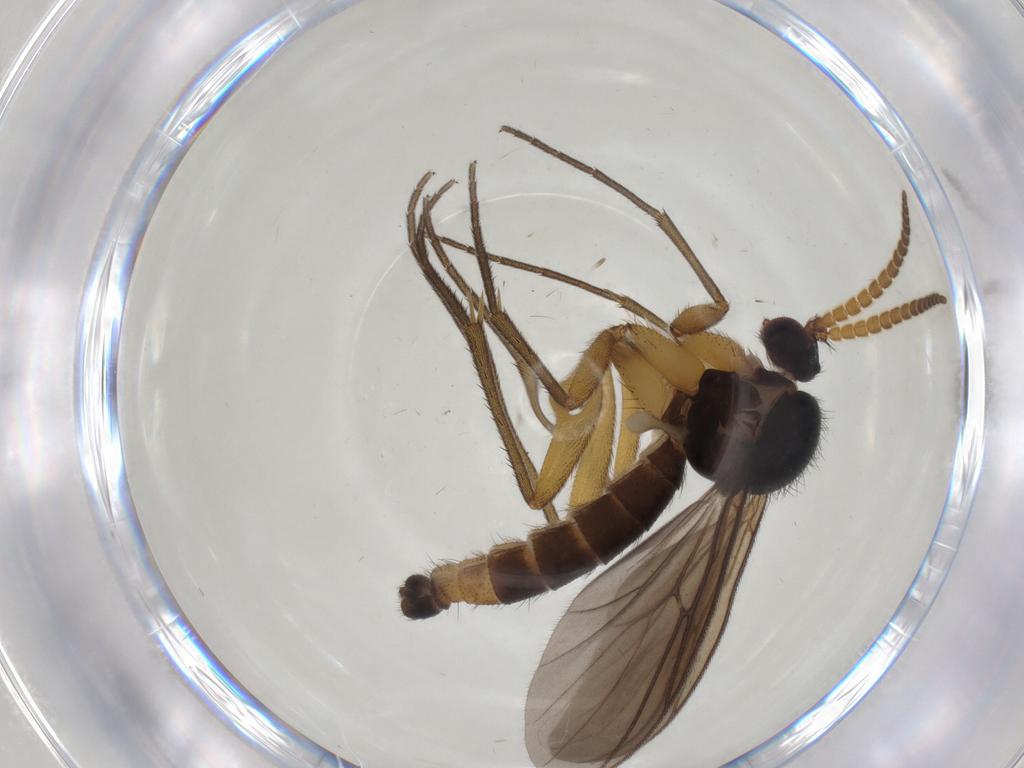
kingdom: Animalia
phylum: Arthropoda
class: Insecta
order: Diptera
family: Mycetophilidae
